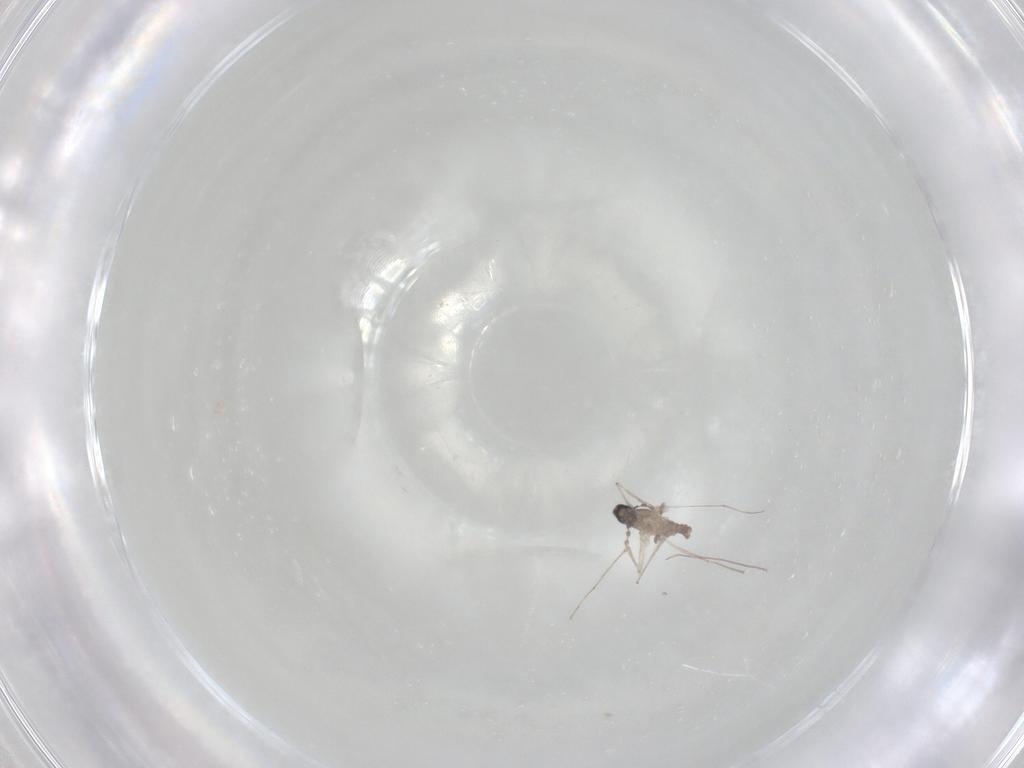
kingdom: Animalia
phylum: Arthropoda
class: Insecta
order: Diptera
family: Cecidomyiidae
